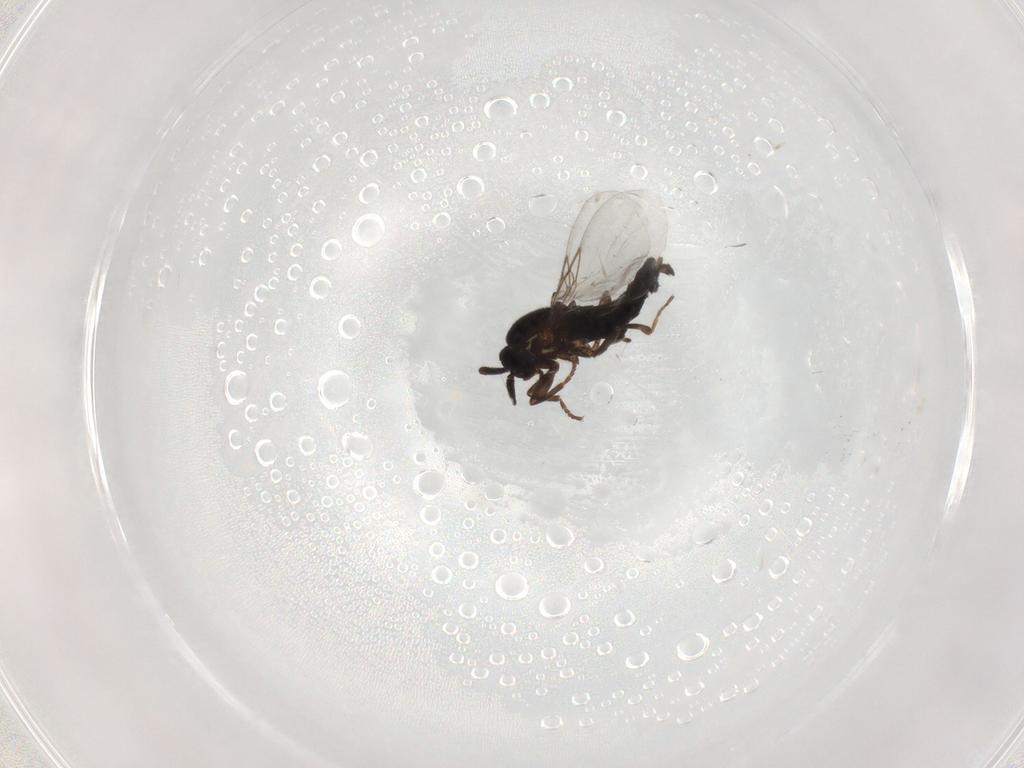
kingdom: Animalia
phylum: Arthropoda
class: Insecta
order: Diptera
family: Scatopsidae
